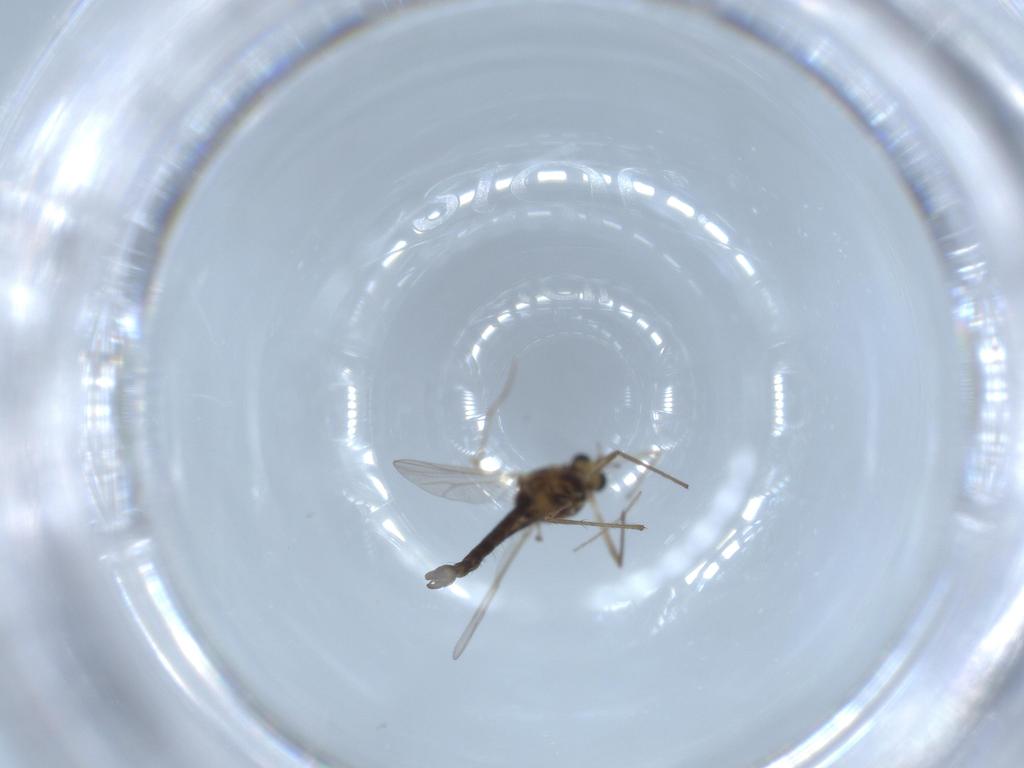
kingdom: Animalia
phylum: Arthropoda
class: Insecta
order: Diptera
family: Chironomidae
